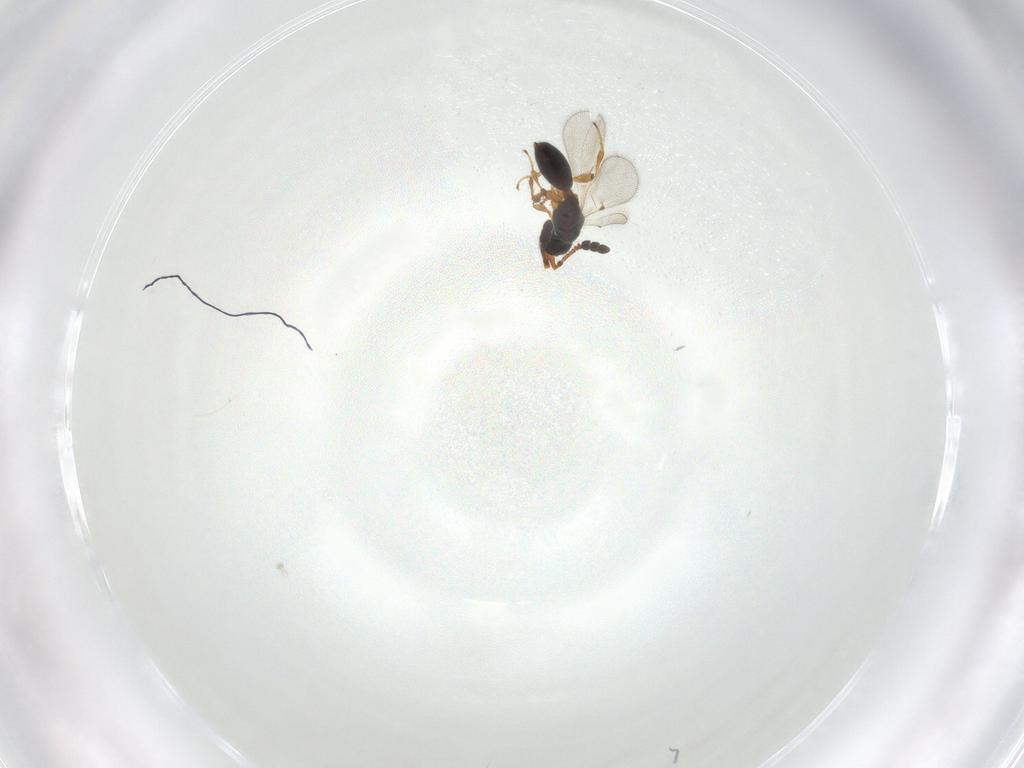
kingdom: Animalia
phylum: Arthropoda
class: Insecta
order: Hymenoptera
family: Diapriidae
